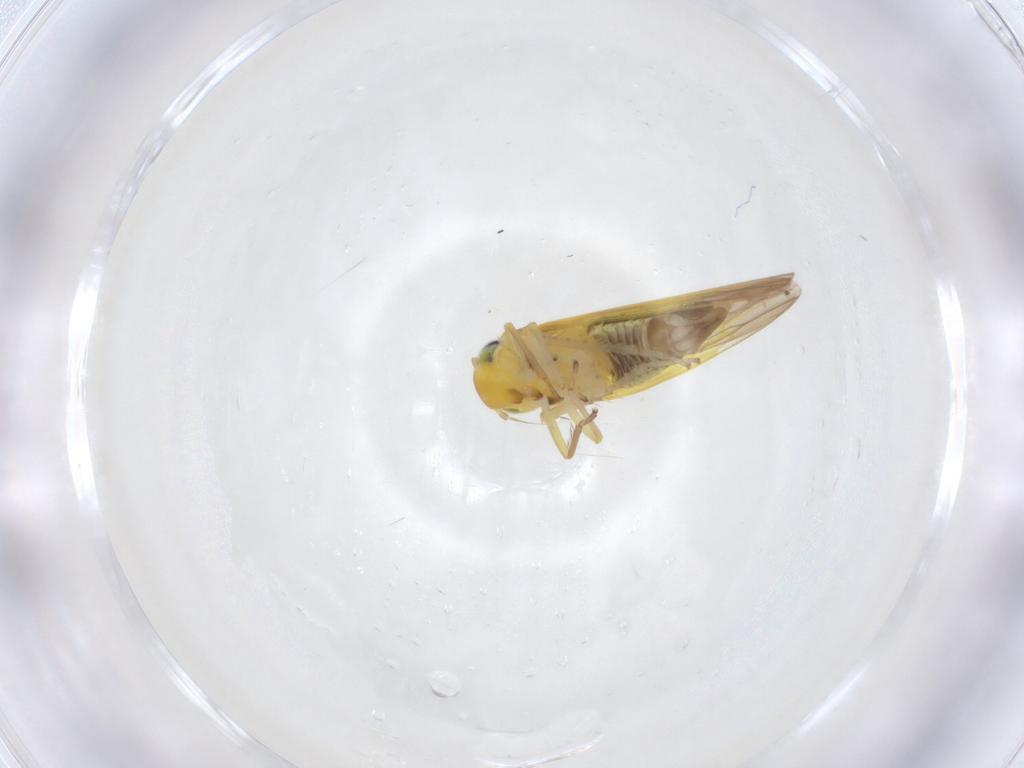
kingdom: Animalia
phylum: Arthropoda
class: Insecta
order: Hemiptera
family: Cicadellidae
